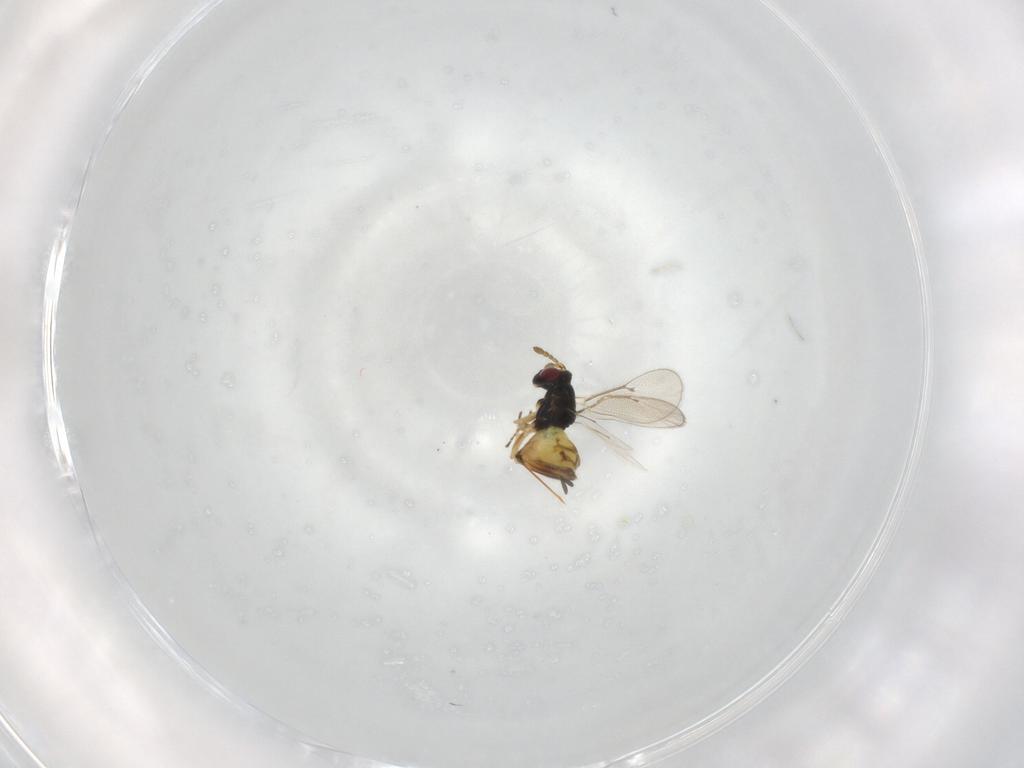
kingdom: Animalia
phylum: Arthropoda
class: Insecta
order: Hymenoptera
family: Eulophidae
